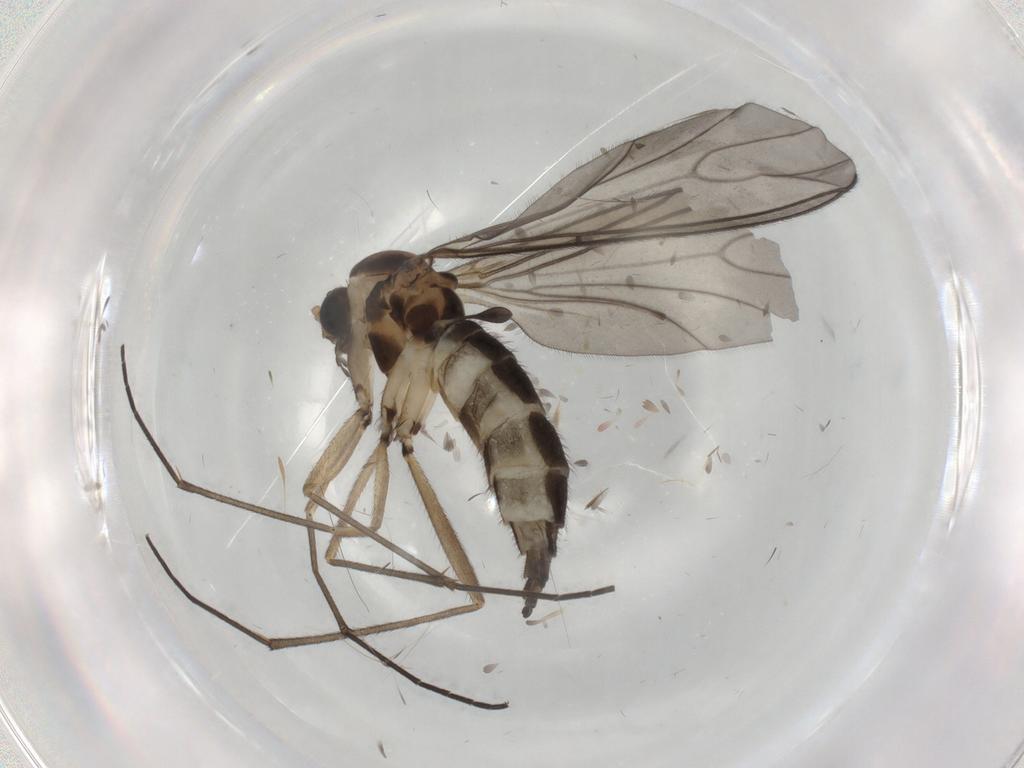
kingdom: Animalia
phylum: Arthropoda
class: Insecta
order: Diptera
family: Sciaridae
